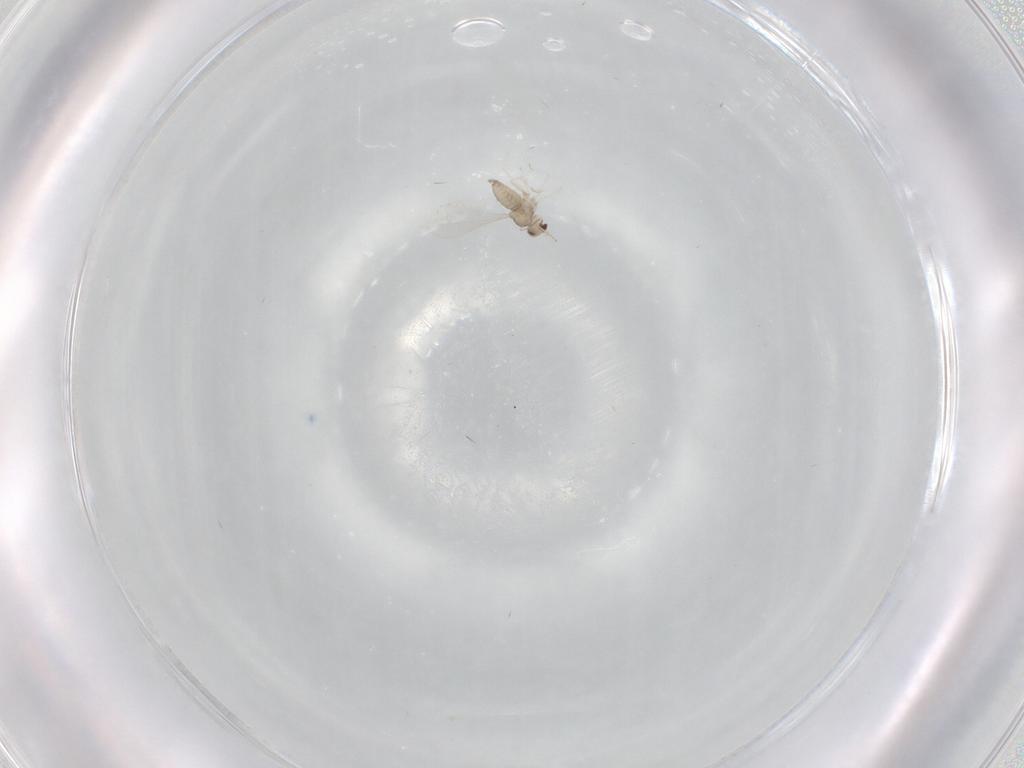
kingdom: Animalia
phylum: Arthropoda
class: Insecta
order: Diptera
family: Cecidomyiidae
